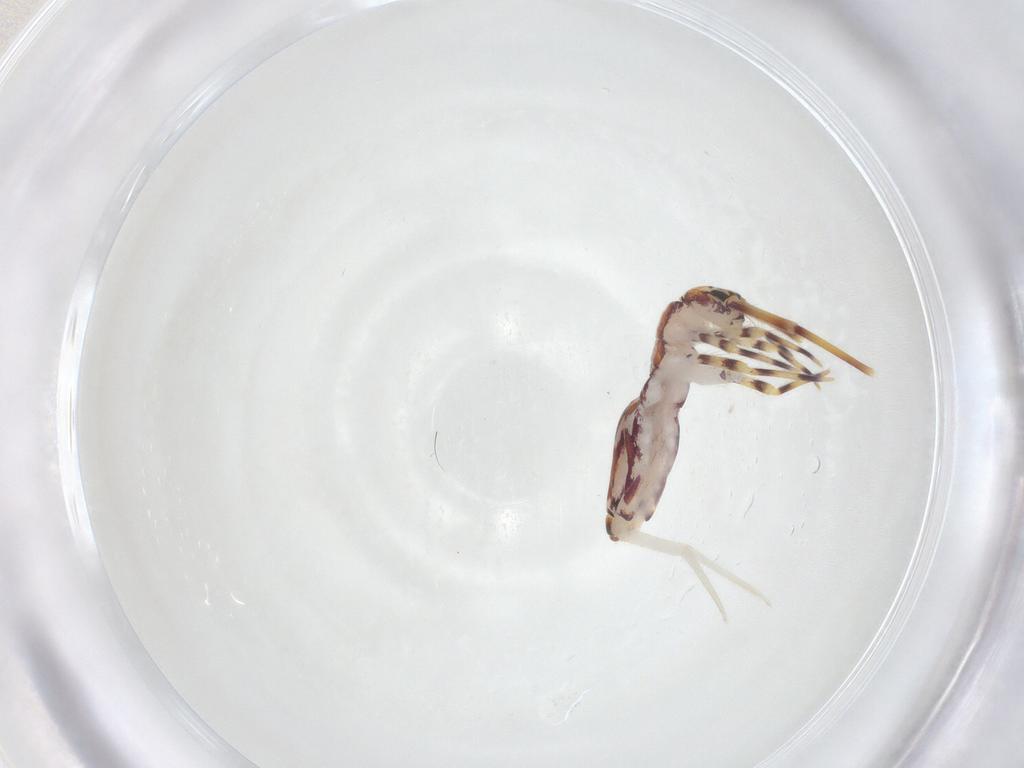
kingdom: Animalia
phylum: Arthropoda
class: Collembola
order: Entomobryomorpha
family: Entomobryidae
